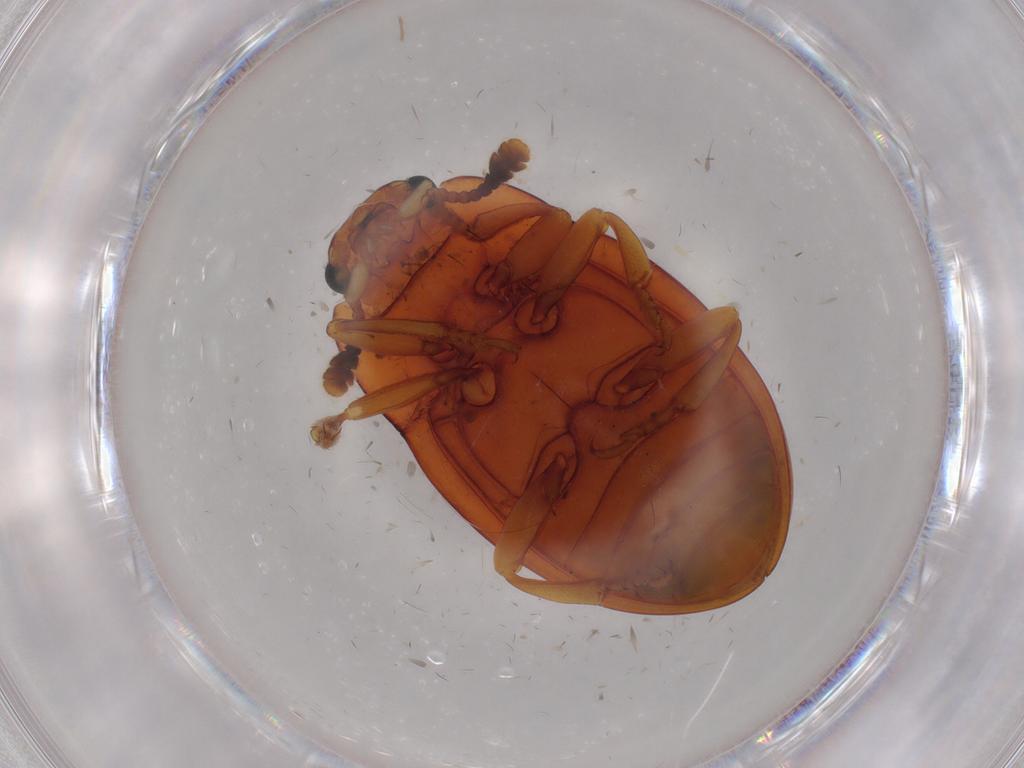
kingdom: Animalia
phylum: Arthropoda
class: Insecta
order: Coleoptera
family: Erotylidae
